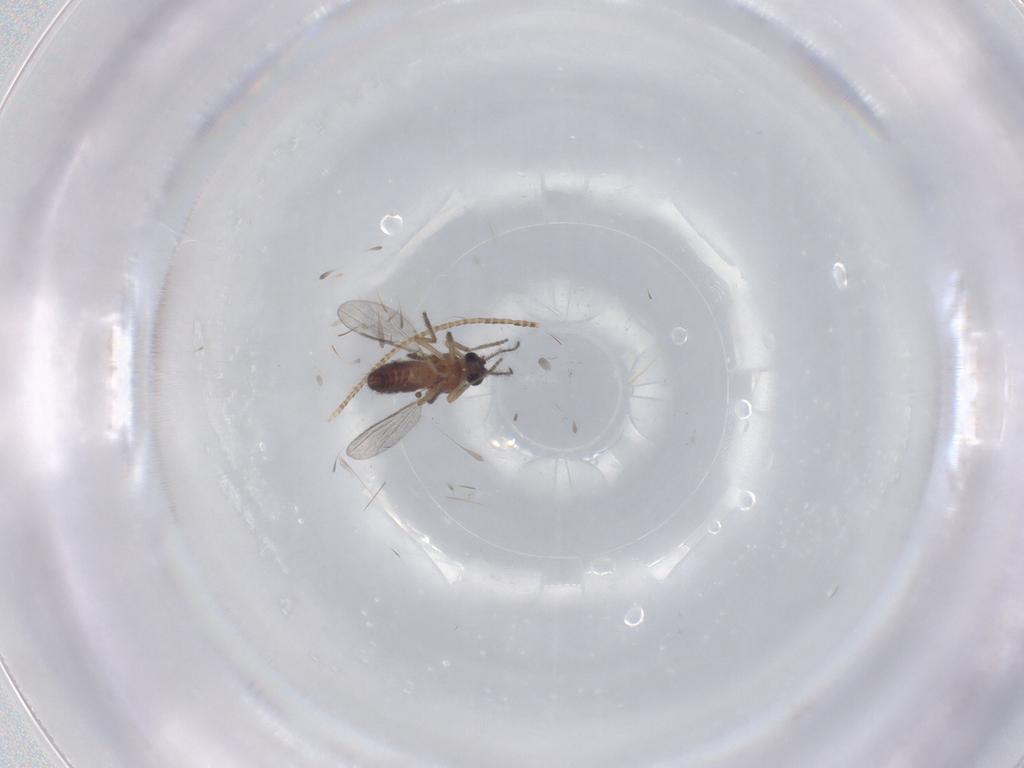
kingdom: Animalia
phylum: Arthropoda
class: Insecta
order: Diptera
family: Ceratopogonidae
